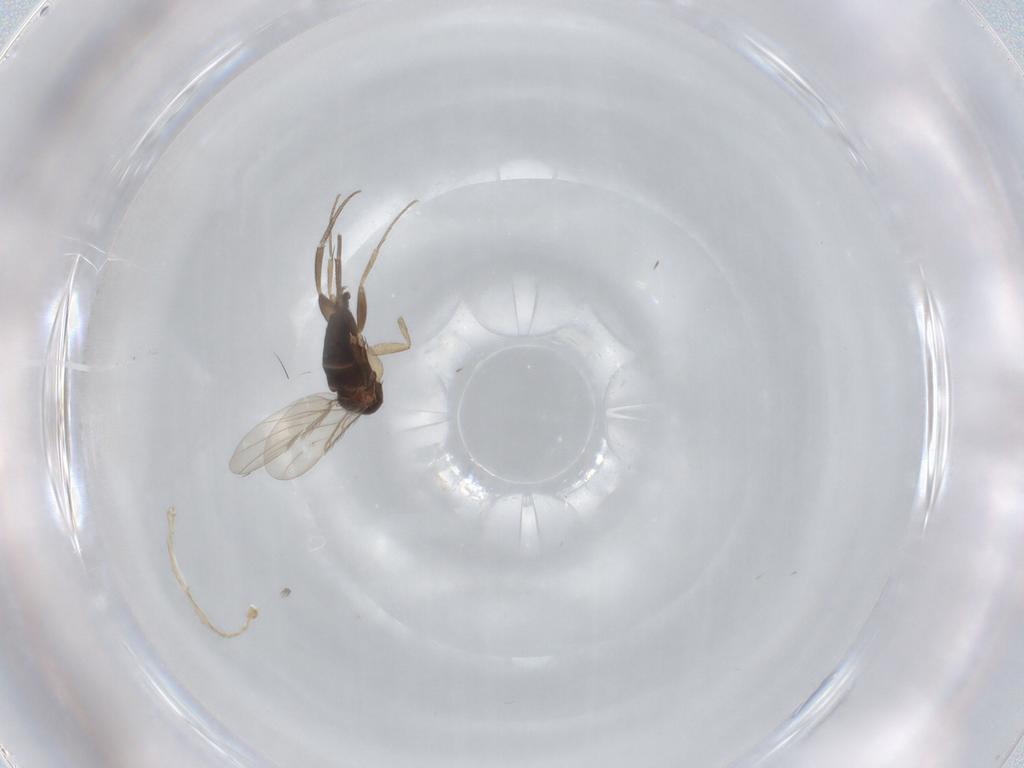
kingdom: Animalia
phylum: Arthropoda
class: Insecta
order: Diptera
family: Phoridae
